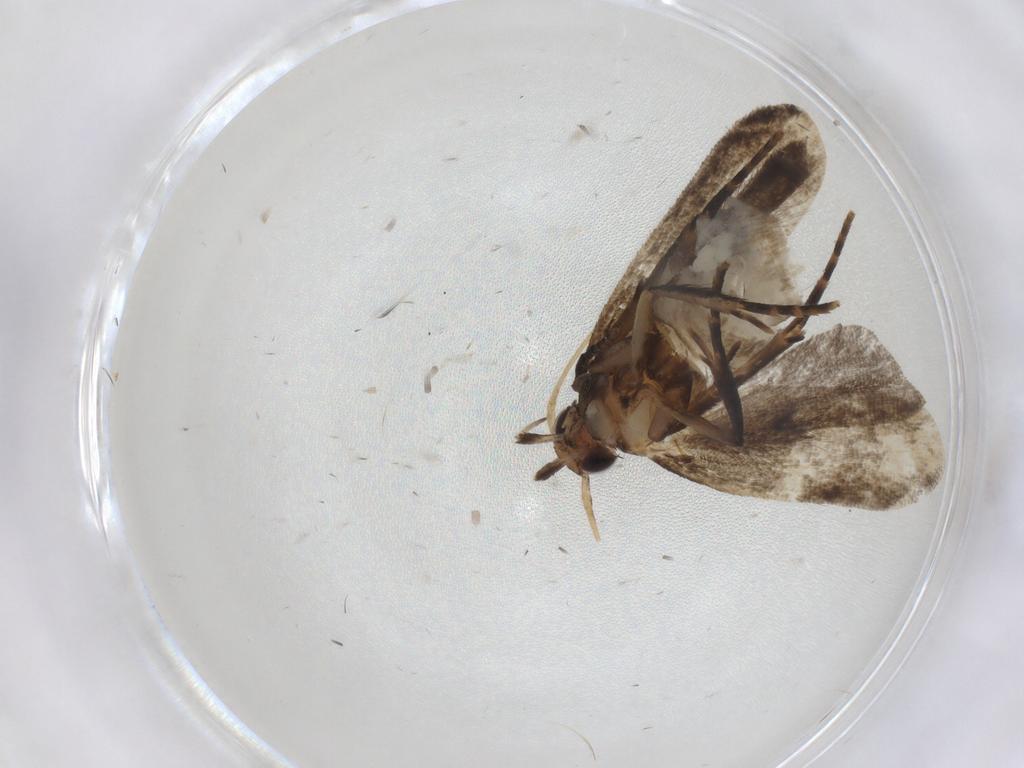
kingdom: Animalia
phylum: Arthropoda
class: Insecta
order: Lepidoptera
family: Gelechiidae
